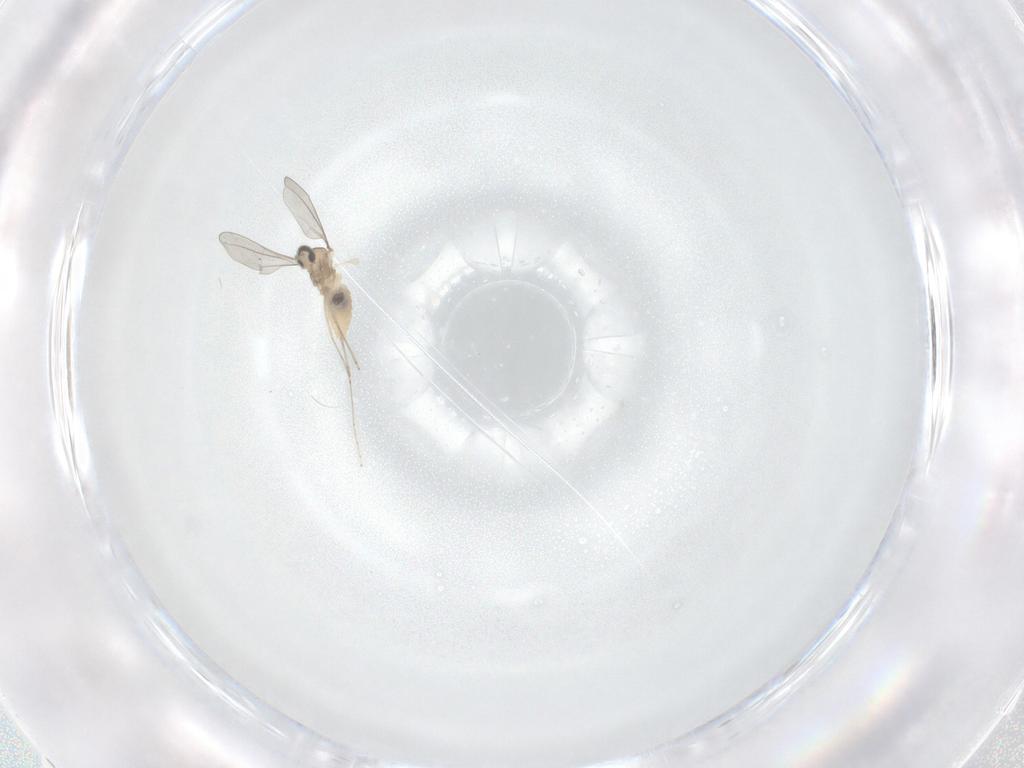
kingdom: Animalia
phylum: Arthropoda
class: Insecta
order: Diptera
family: Cecidomyiidae
